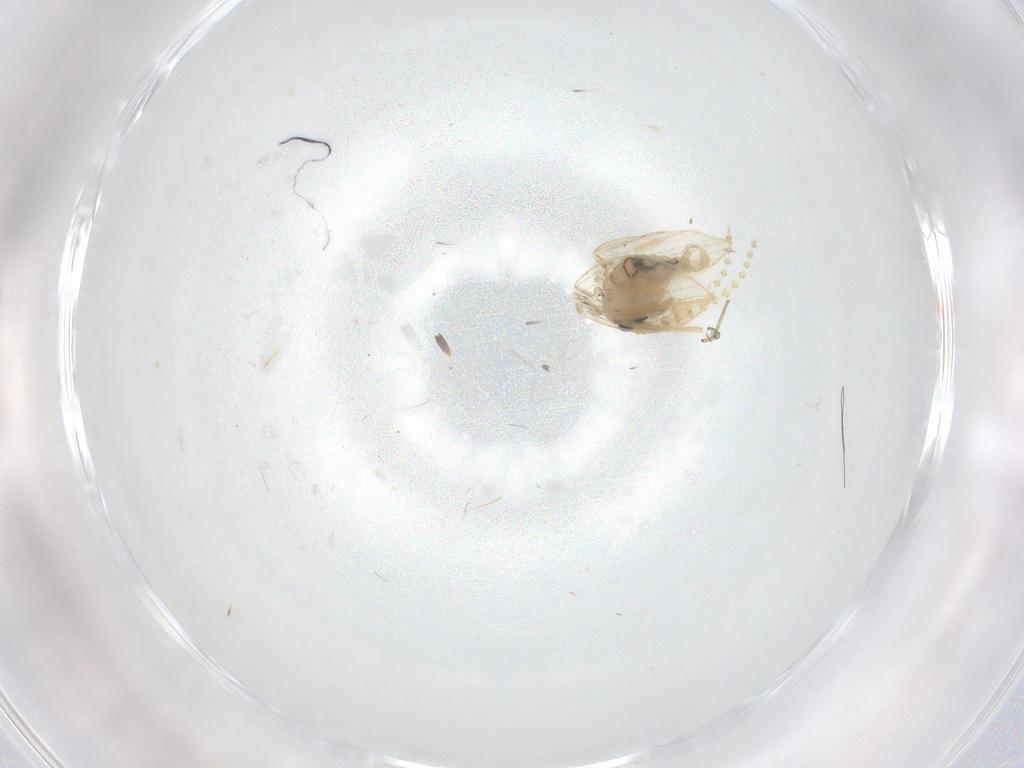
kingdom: Animalia
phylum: Arthropoda
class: Insecta
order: Diptera
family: Psychodidae
